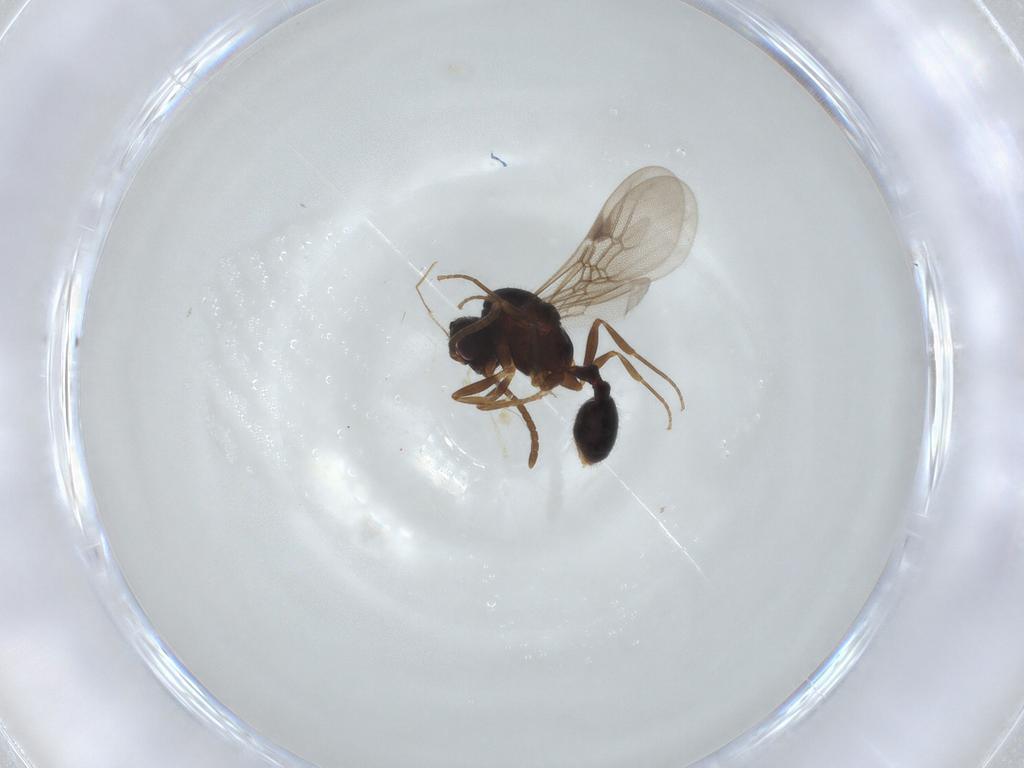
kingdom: Animalia
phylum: Arthropoda
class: Insecta
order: Hymenoptera
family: Formicidae
